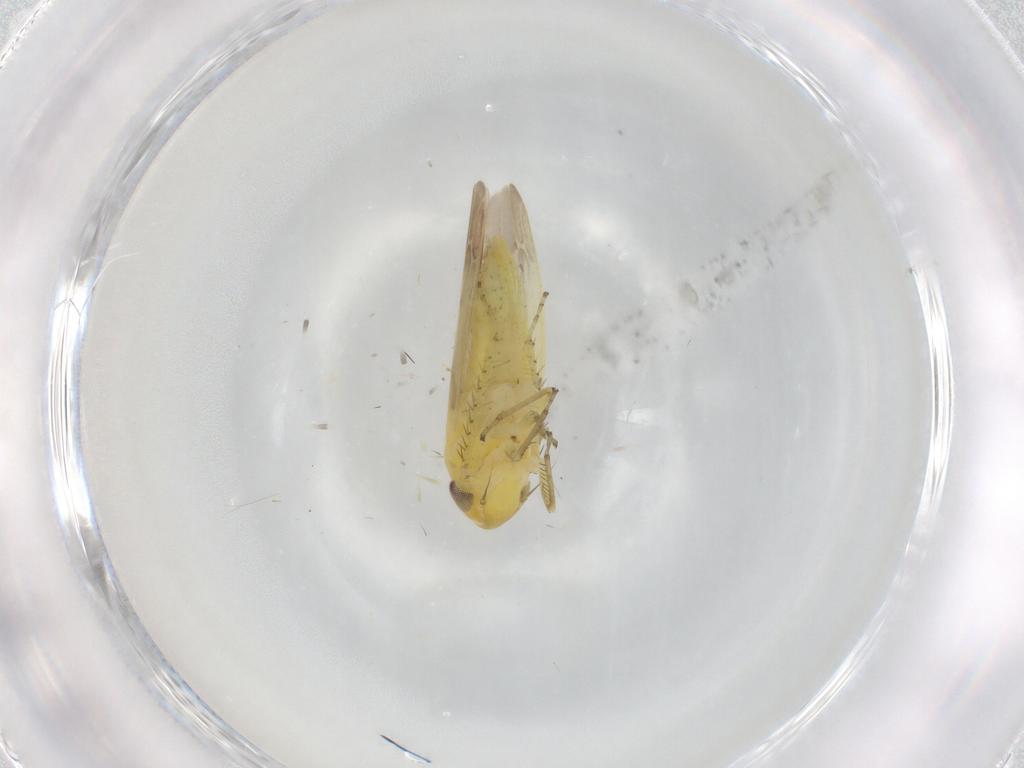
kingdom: Animalia
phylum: Arthropoda
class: Insecta
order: Hemiptera
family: Cicadellidae
